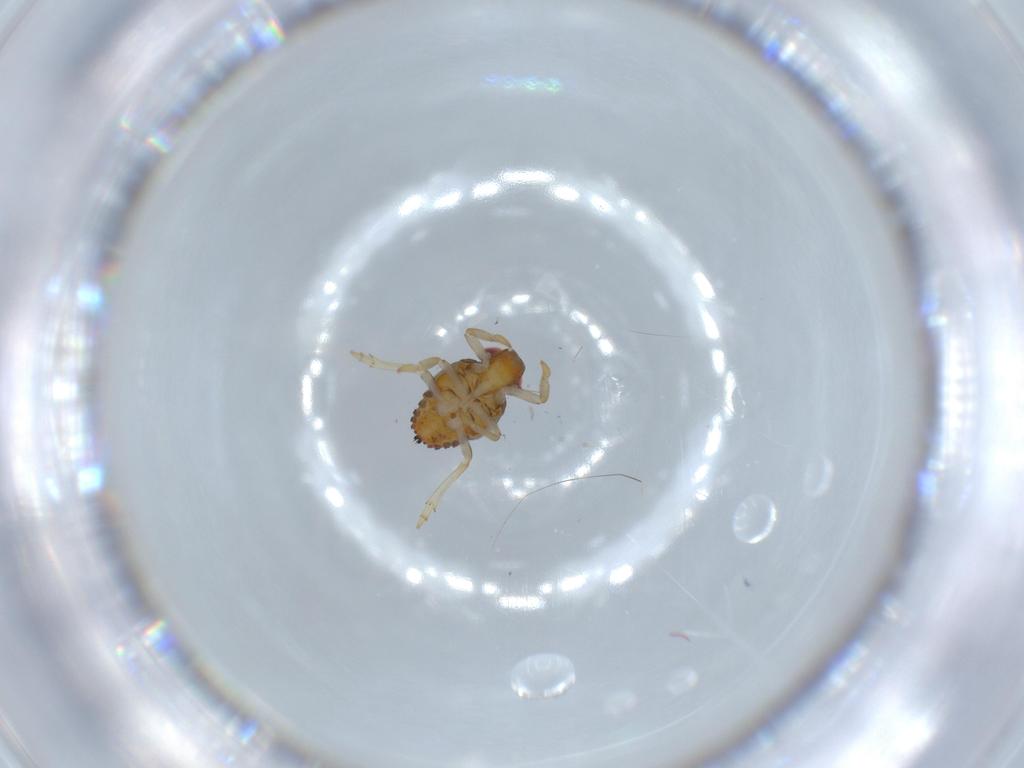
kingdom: Animalia
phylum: Arthropoda
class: Insecta
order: Hemiptera
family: Issidae
